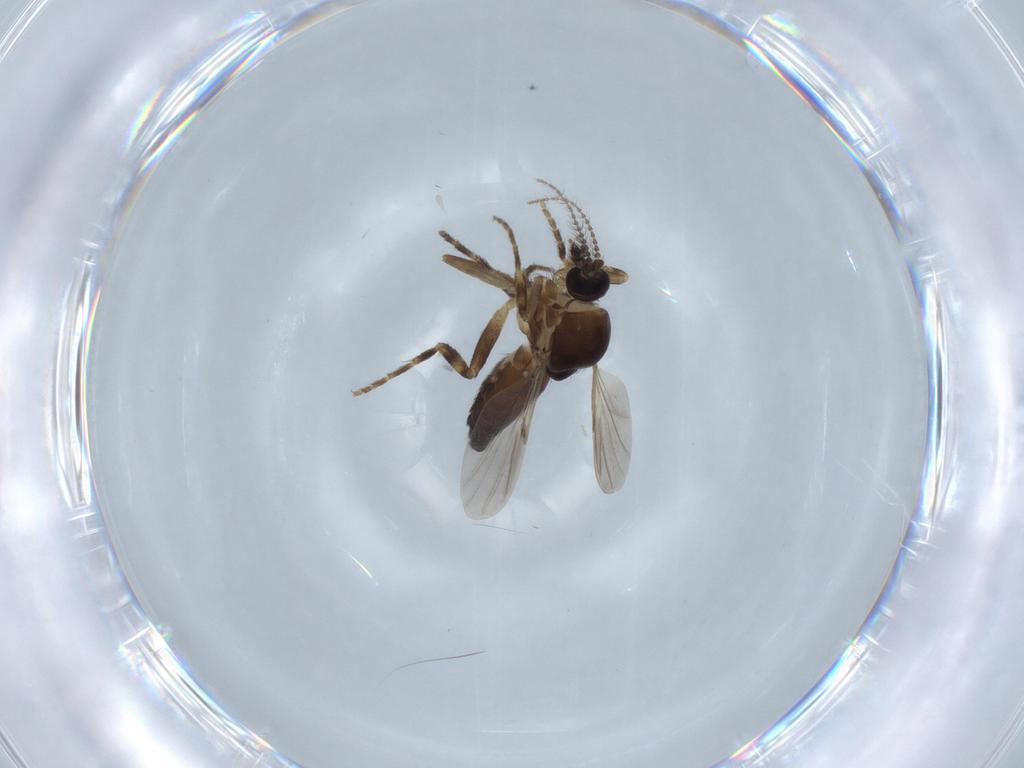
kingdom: Animalia
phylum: Arthropoda
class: Insecta
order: Diptera
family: Ceratopogonidae
